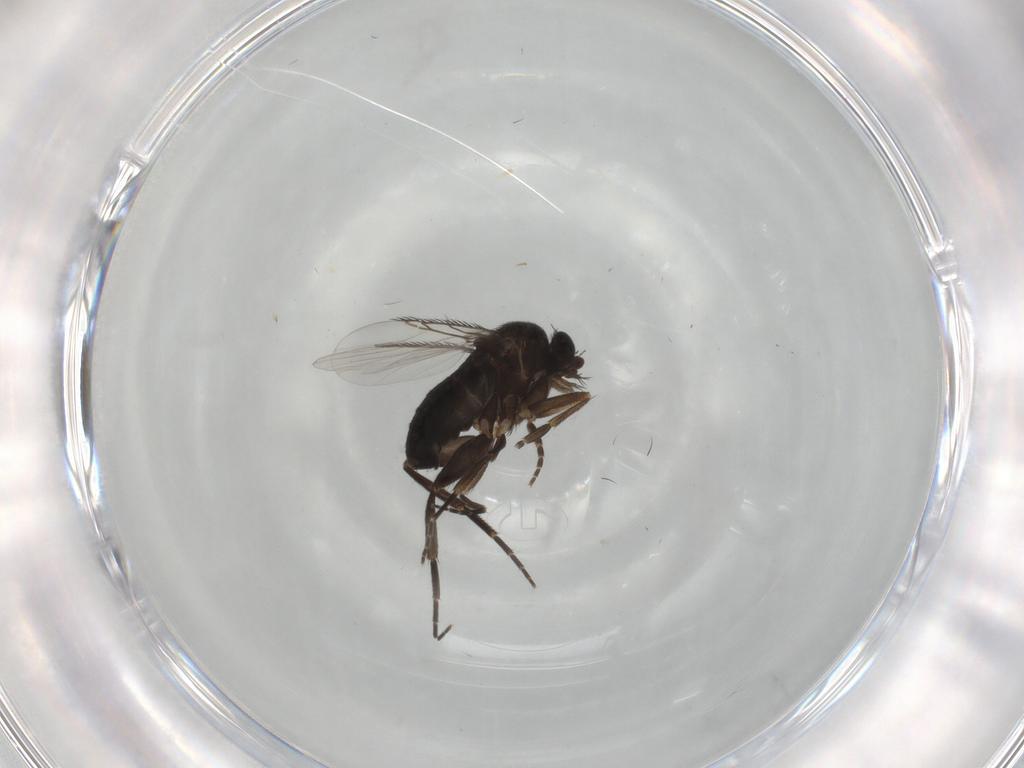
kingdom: Animalia
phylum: Arthropoda
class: Insecta
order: Diptera
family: Phoridae
